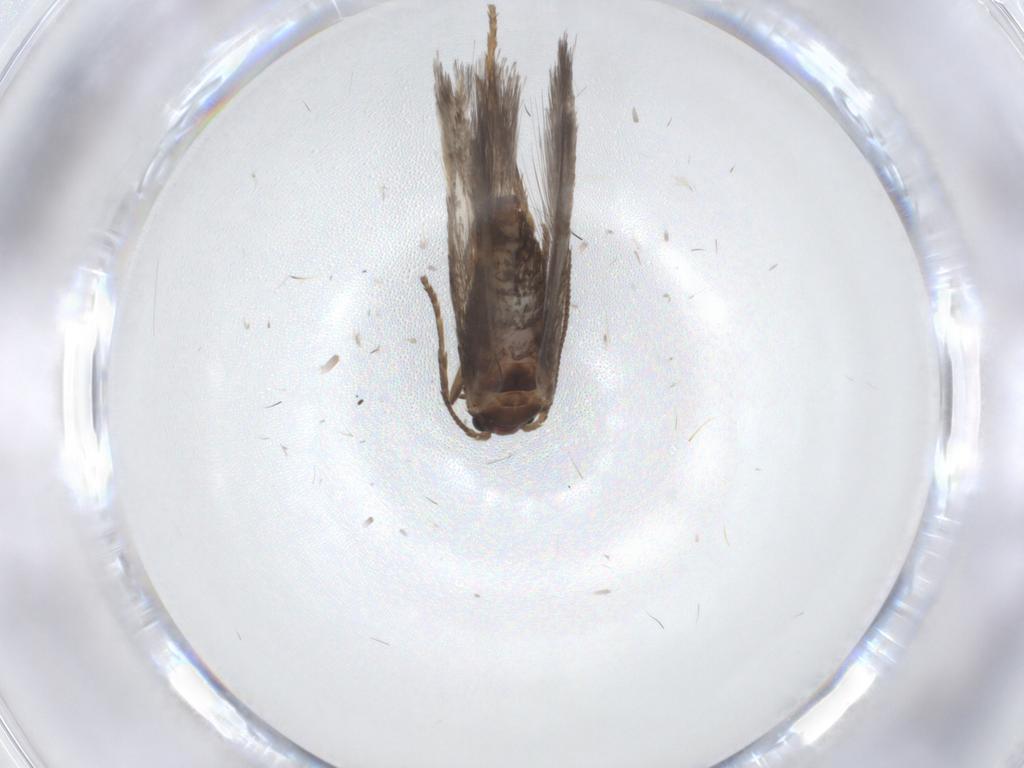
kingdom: Animalia
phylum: Arthropoda
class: Insecta
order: Lepidoptera
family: Nepticulidae
